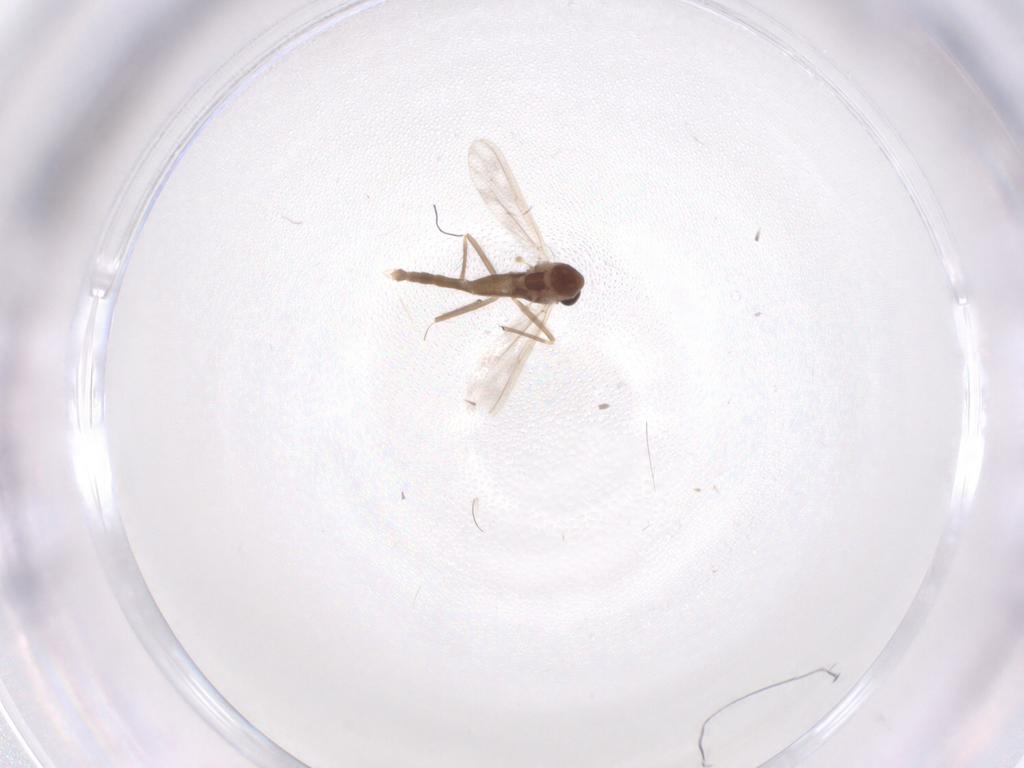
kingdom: Animalia
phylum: Arthropoda
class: Insecta
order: Diptera
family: Chironomidae
